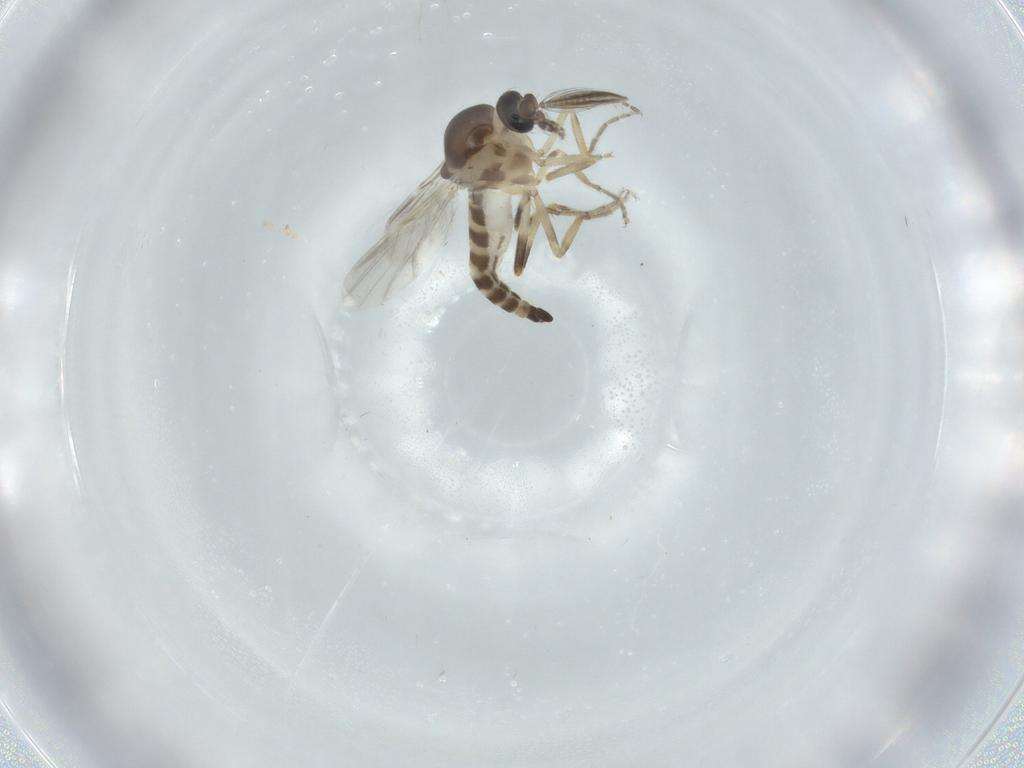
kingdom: Animalia
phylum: Arthropoda
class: Insecta
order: Diptera
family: Ceratopogonidae
